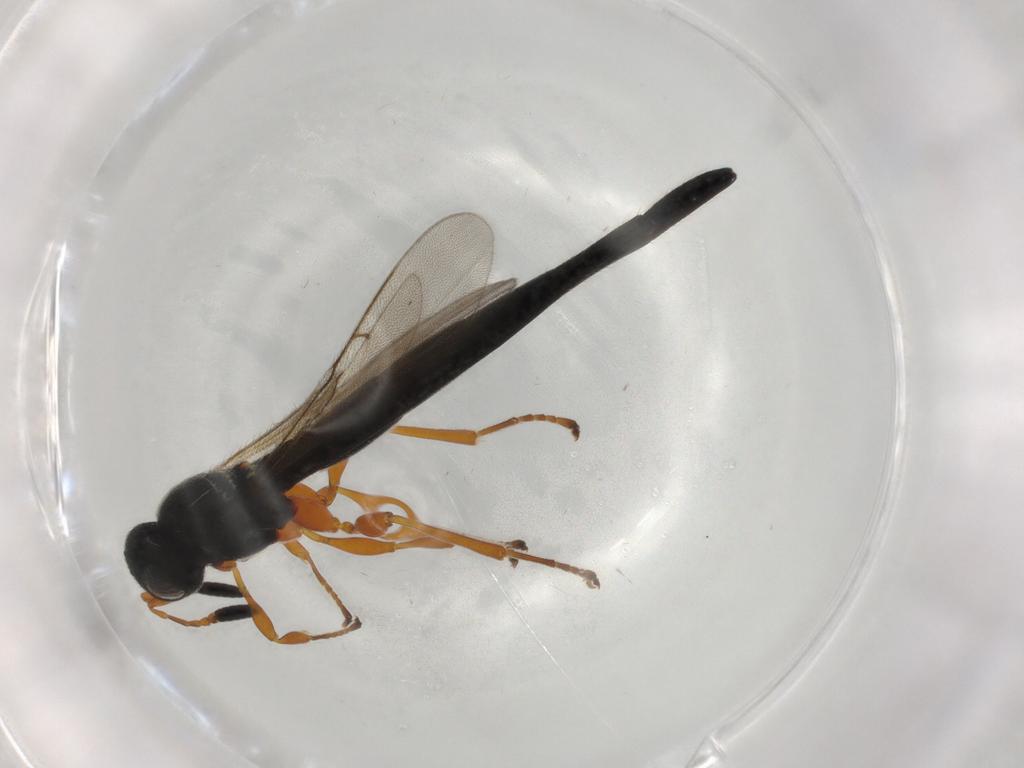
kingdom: Animalia
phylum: Arthropoda
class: Insecta
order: Hymenoptera
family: Scelionidae
